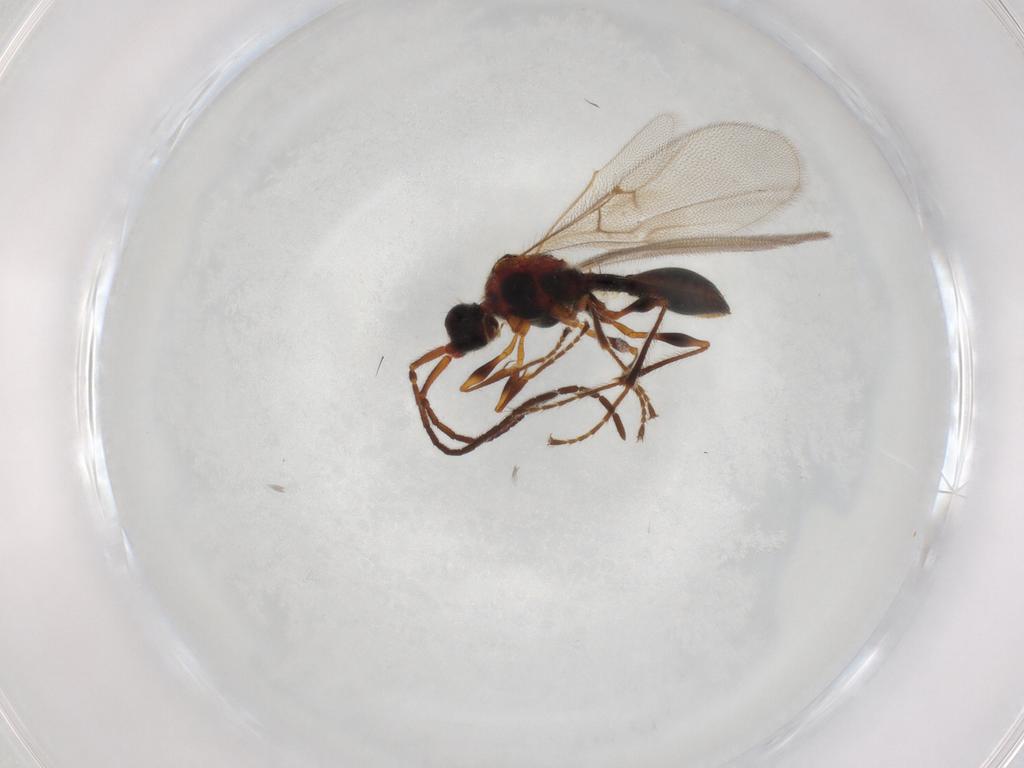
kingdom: Animalia
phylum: Arthropoda
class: Insecta
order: Hymenoptera
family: Diapriidae
